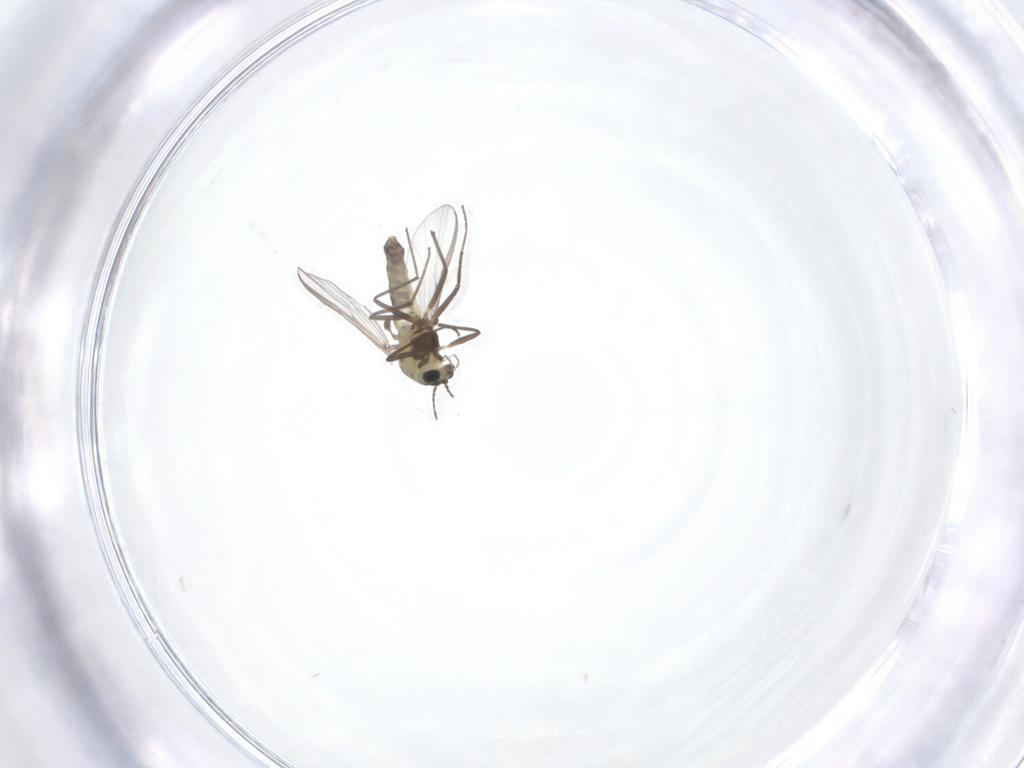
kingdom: Animalia
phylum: Arthropoda
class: Insecta
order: Diptera
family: Chironomidae
